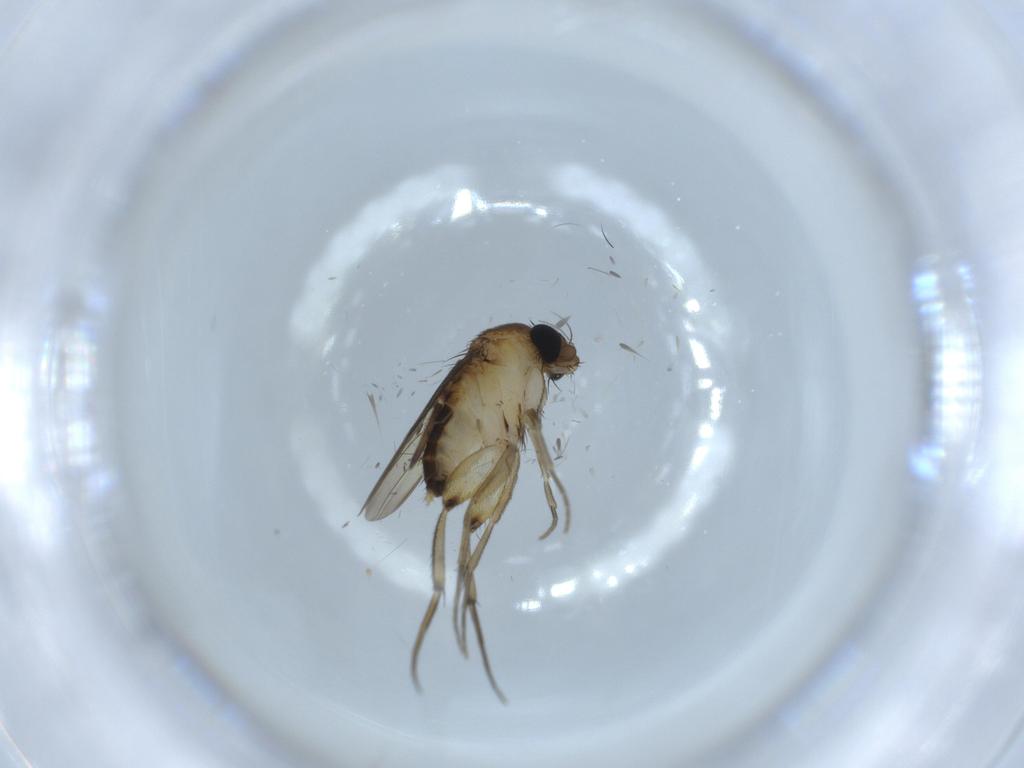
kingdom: Animalia
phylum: Arthropoda
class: Insecta
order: Diptera
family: Phoridae
